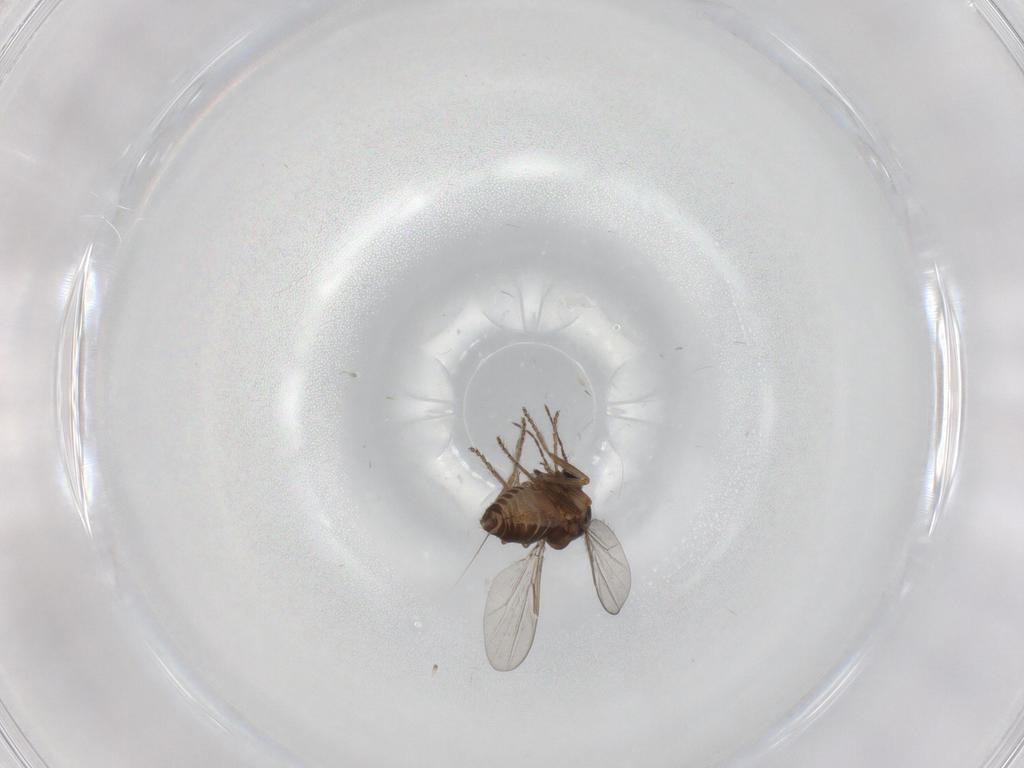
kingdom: Animalia
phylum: Arthropoda
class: Insecta
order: Diptera
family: Ceratopogonidae
